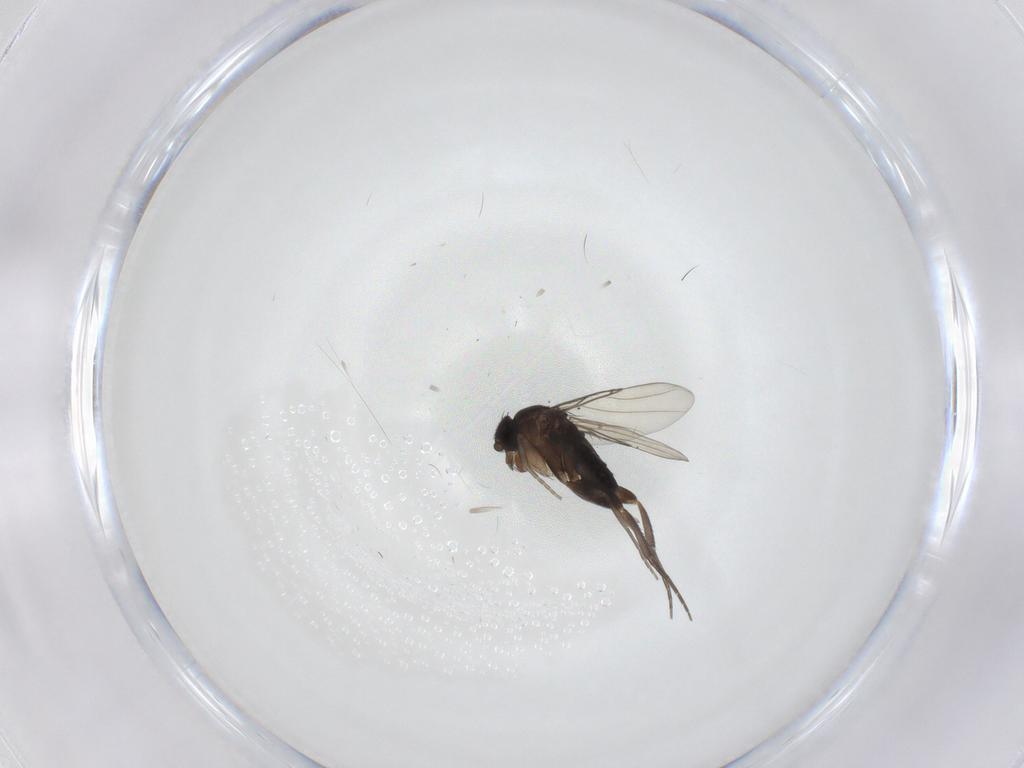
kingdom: Animalia
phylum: Arthropoda
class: Insecta
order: Diptera
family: Phoridae
